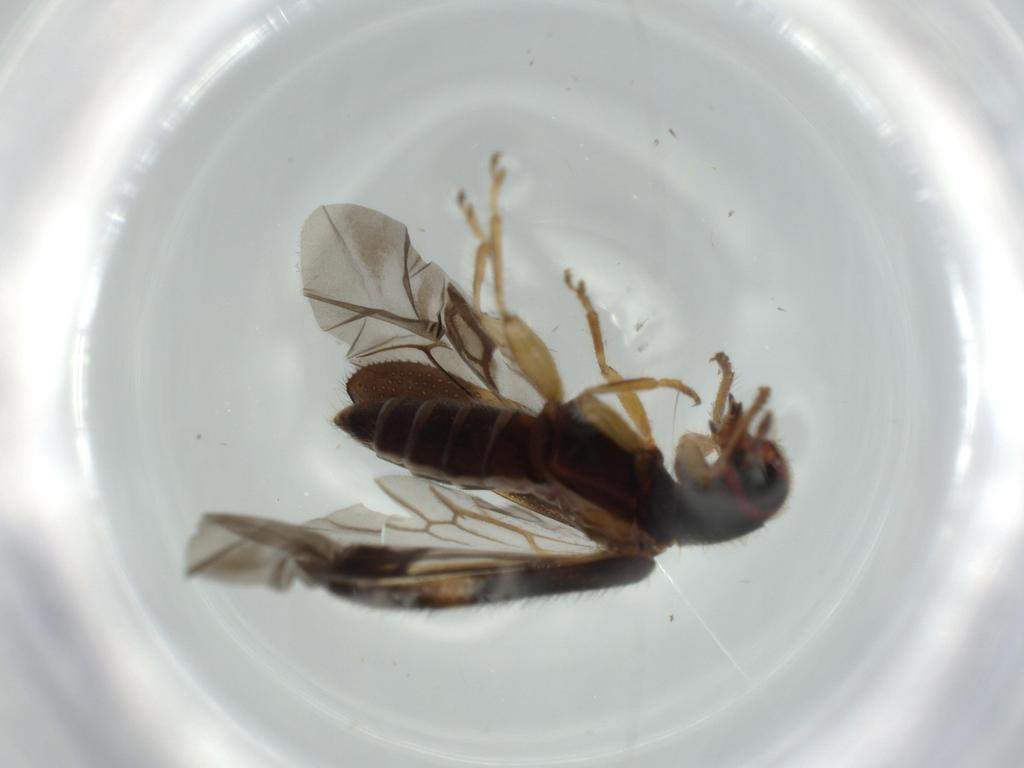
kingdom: Animalia
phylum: Arthropoda
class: Insecta
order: Coleoptera
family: Cleridae
